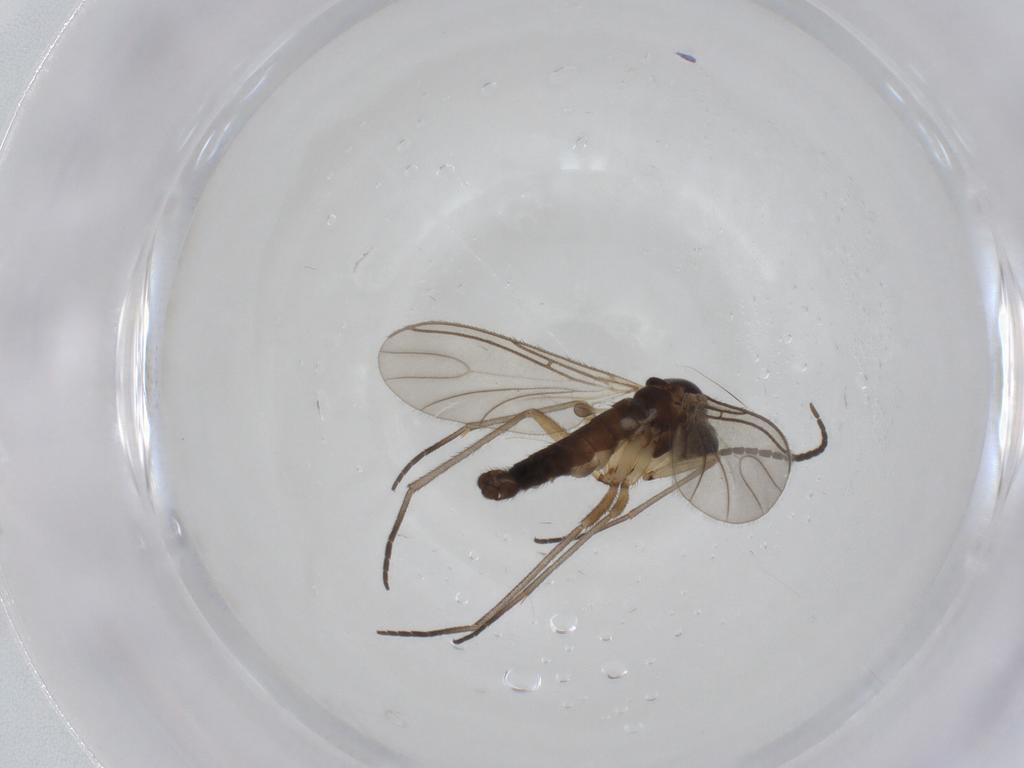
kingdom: Animalia
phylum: Arthropoda
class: Insecta
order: Diptera
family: Sciaridae
